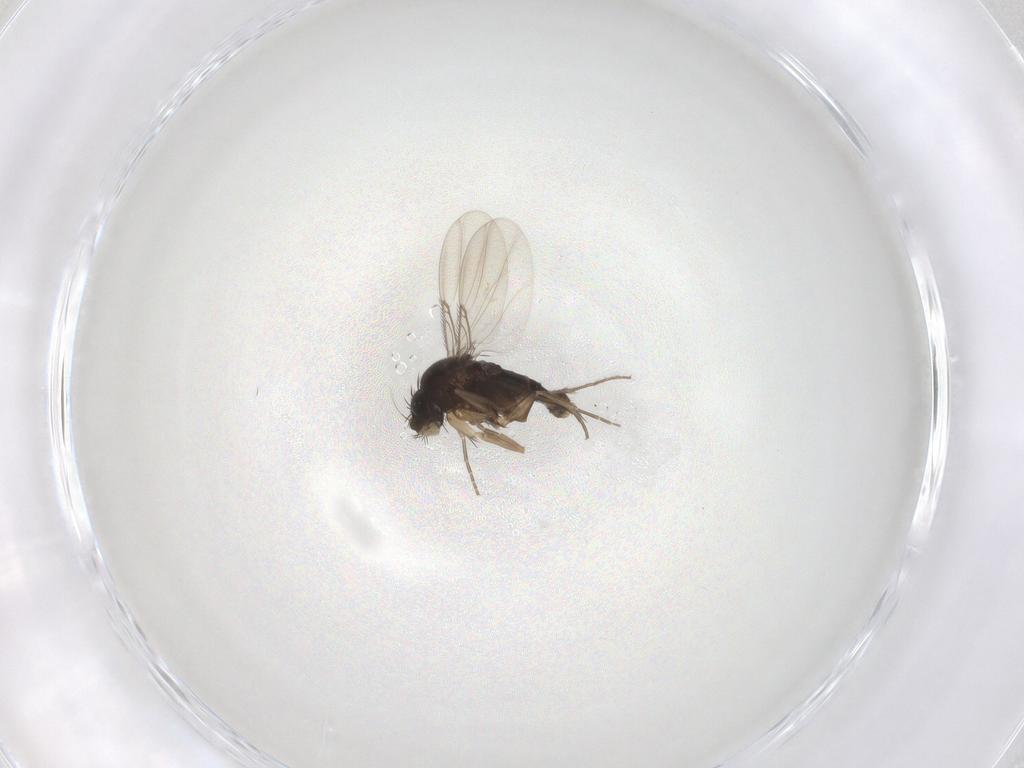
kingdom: Animalia
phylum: Arthropoda
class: Insecta
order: Diptera
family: Phoridae
